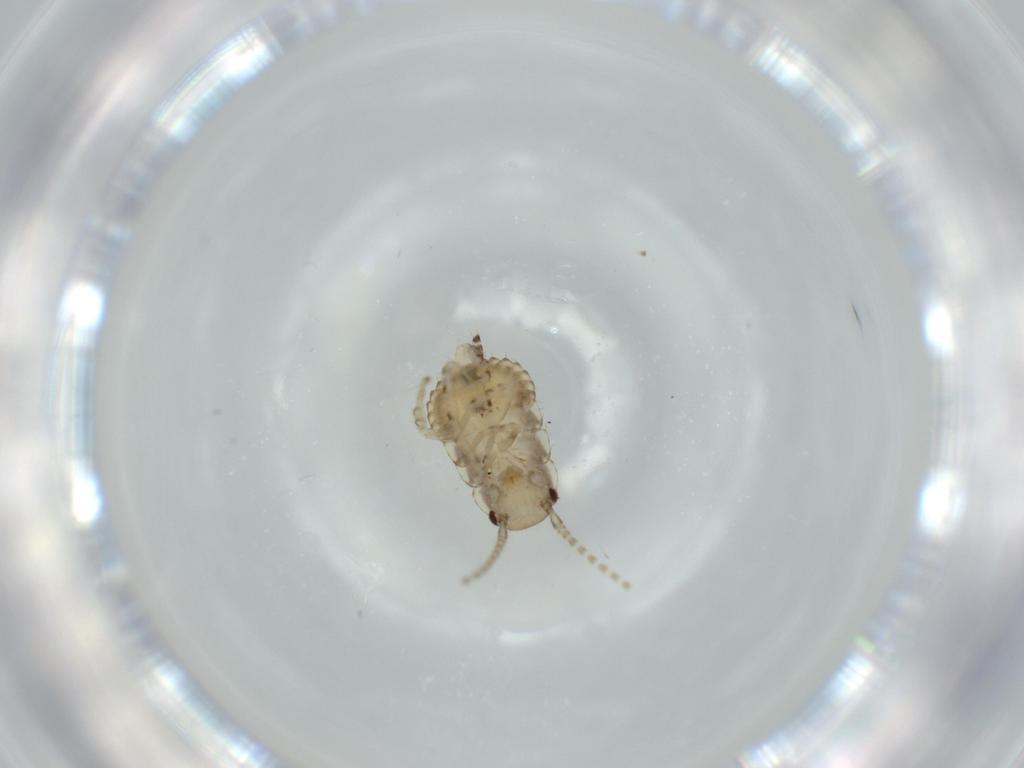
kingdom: Animalia
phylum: Arthropoda
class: Insecta
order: Blattodea
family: Ectobiidae
